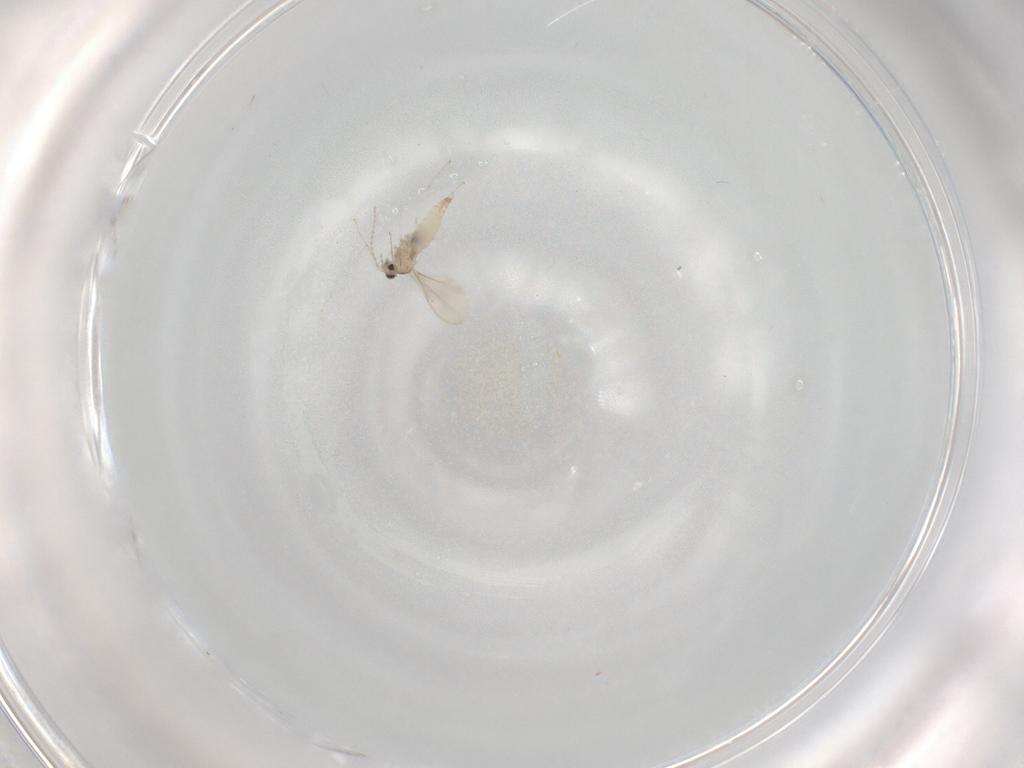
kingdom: Animalia
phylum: Arthropoda
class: Insecta
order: Diptera
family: Cecidomyiidae
